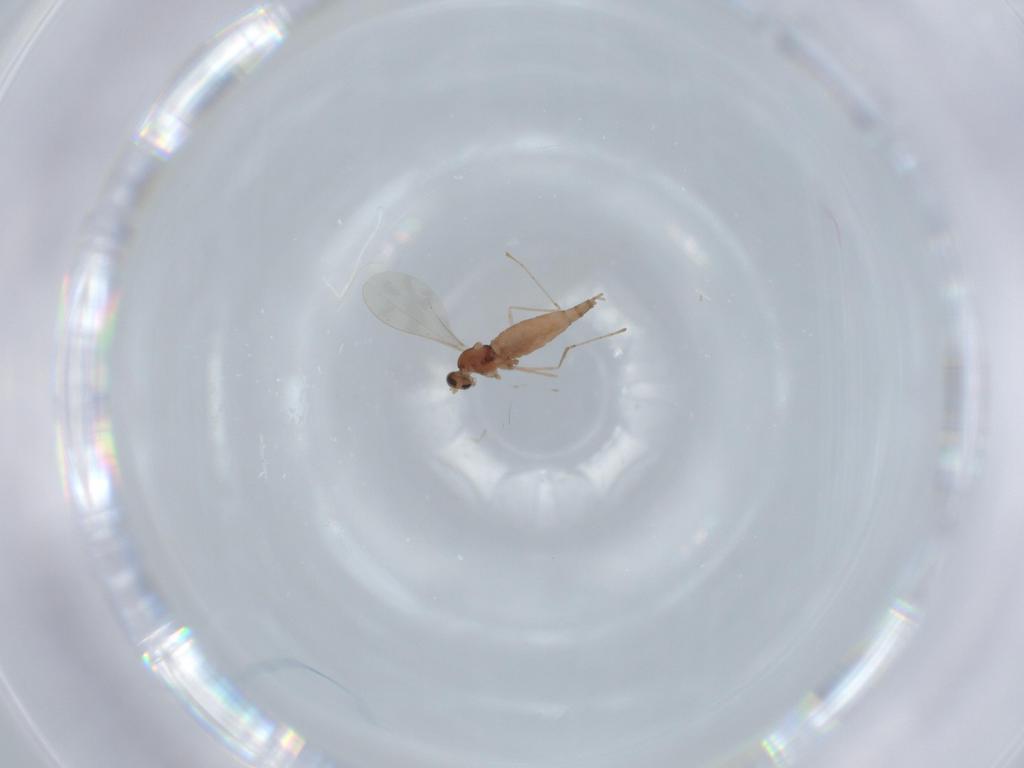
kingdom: Animalia
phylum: Arthropoda
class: Insecta
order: Diptera
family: Cecidomyiidae
